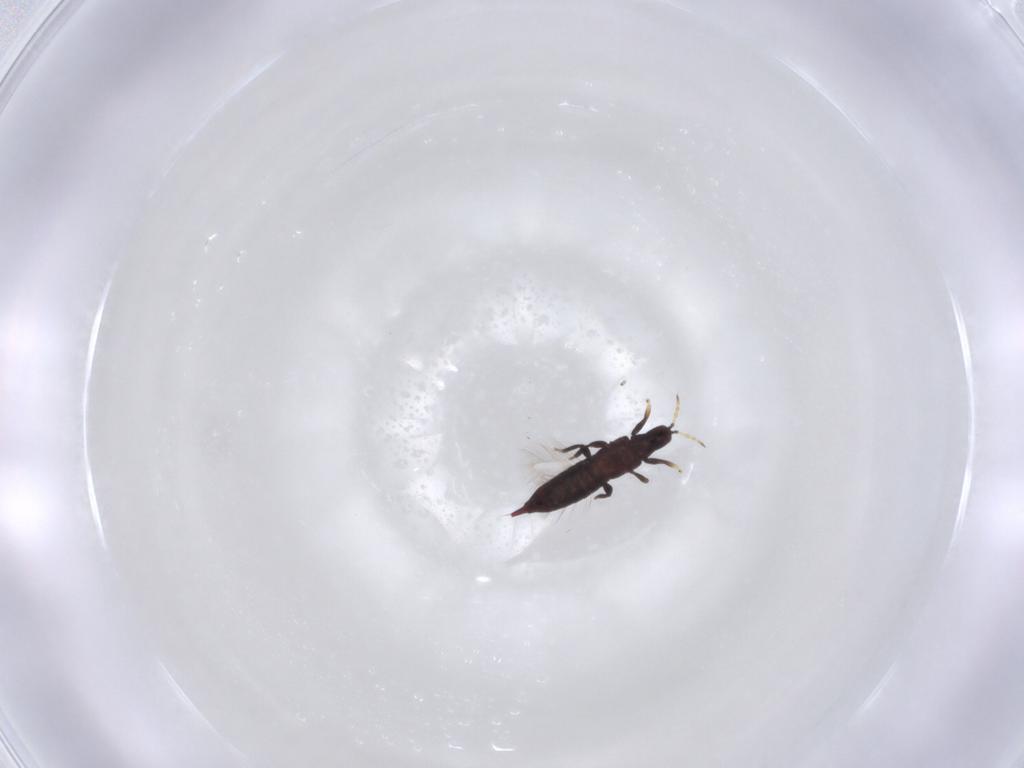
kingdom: Animalia
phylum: Arthropoda
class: Insecta
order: Thysanoptera
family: Phlaeothripidae
